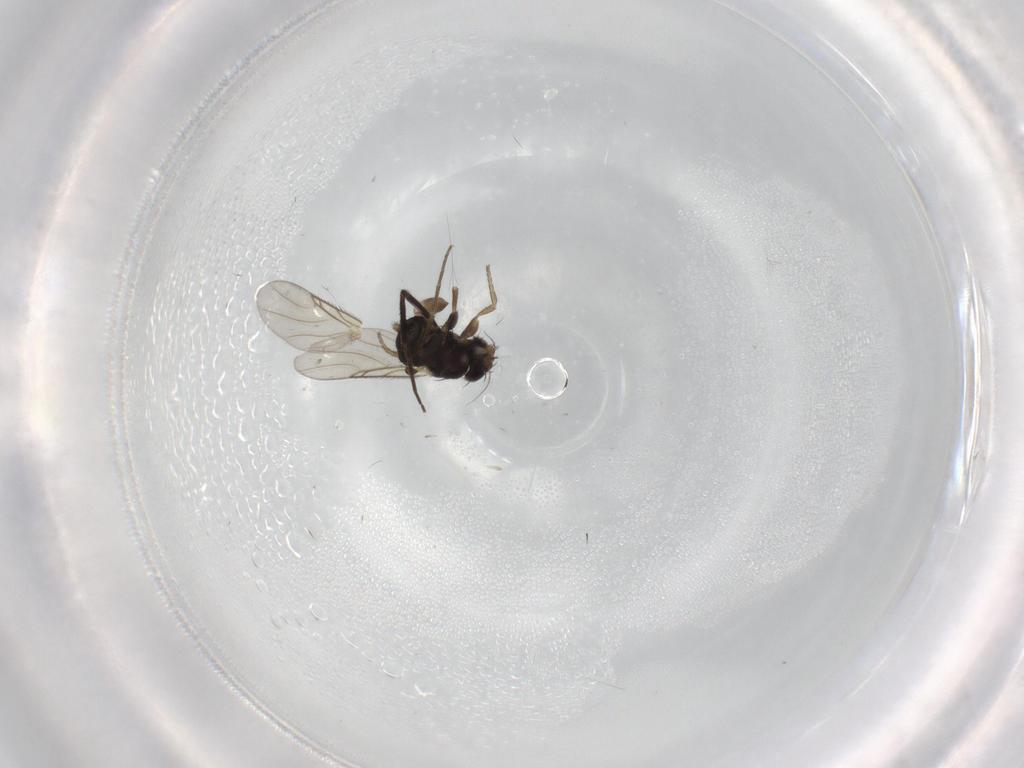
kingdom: Animalia
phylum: Arthropoda
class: Insecta
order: Diptera
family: Phoridae
